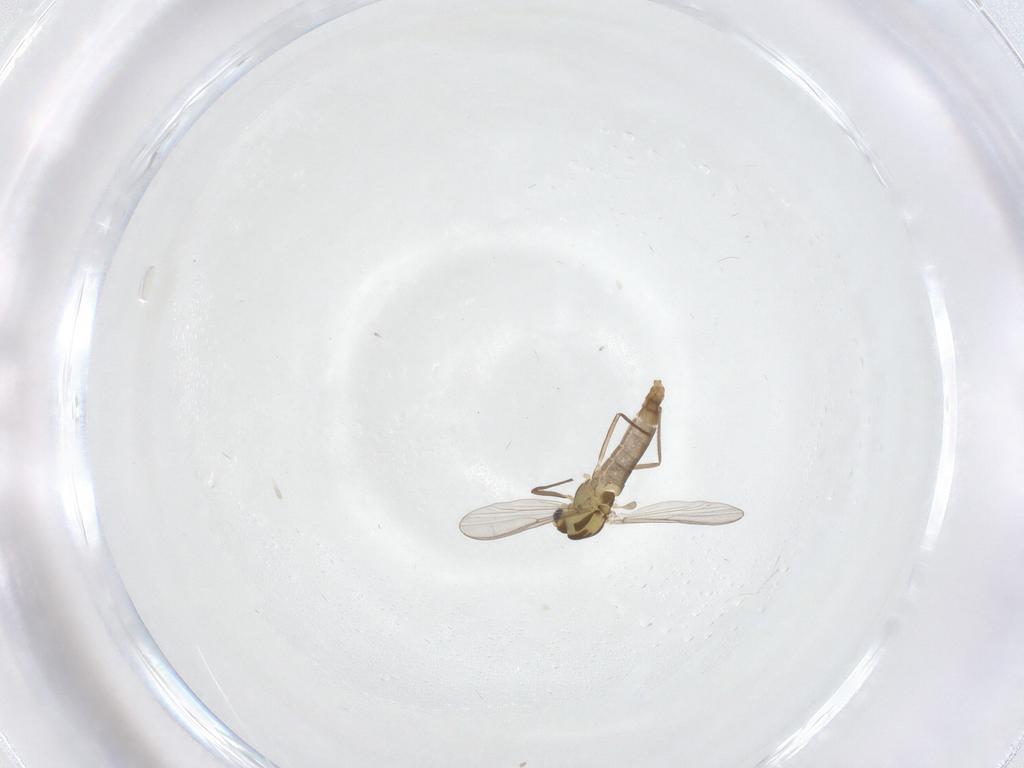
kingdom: Animalia
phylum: Arthropoda
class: Insecta
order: Diptera
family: Chironomidae
